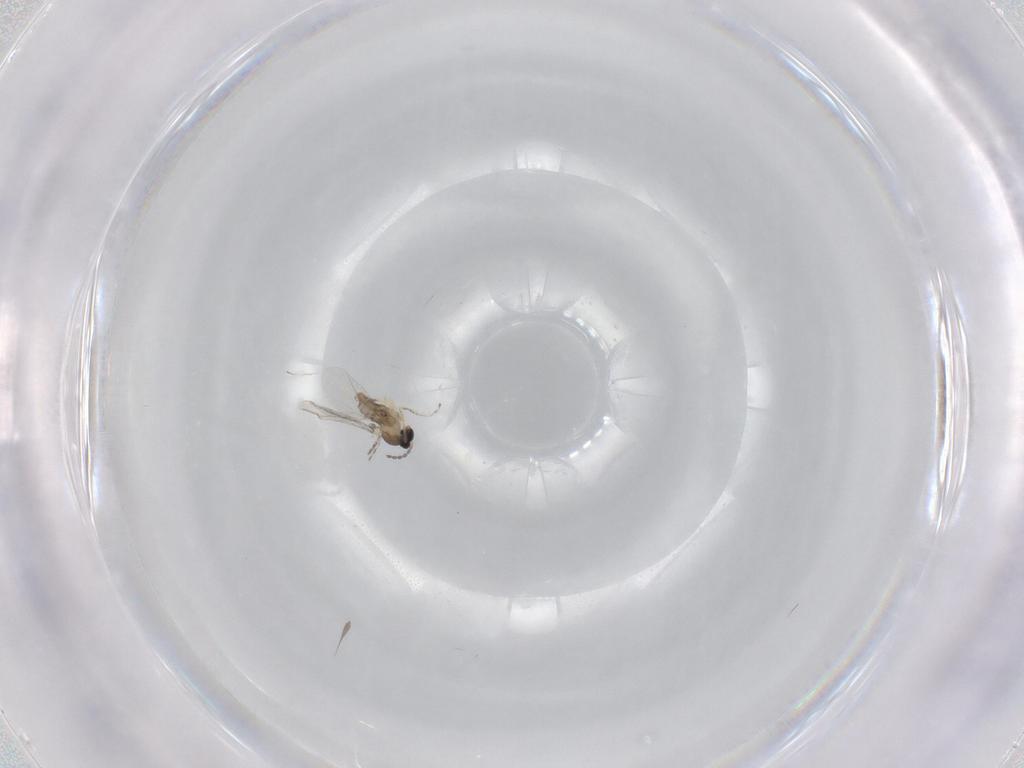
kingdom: Animalia
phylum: Arthropoda
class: Insecta
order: Diptera
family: Cecidomyiidae
